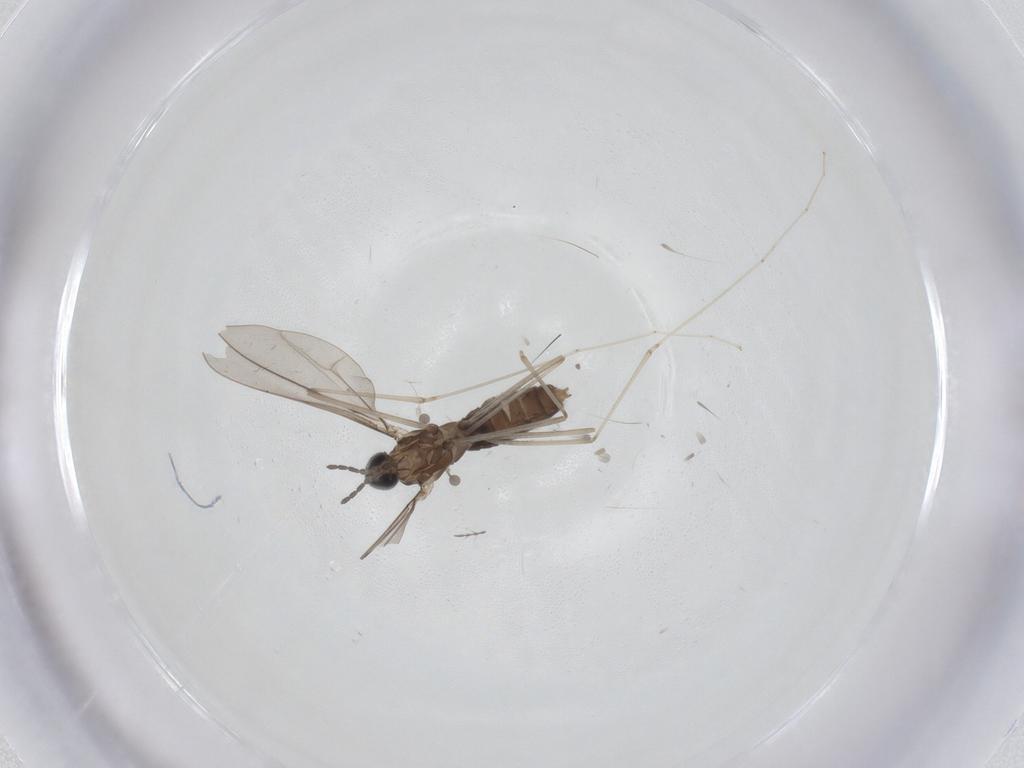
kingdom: Animalia
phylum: Arthropoda
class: Insecta
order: Diptera
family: Cecidomyiidae
